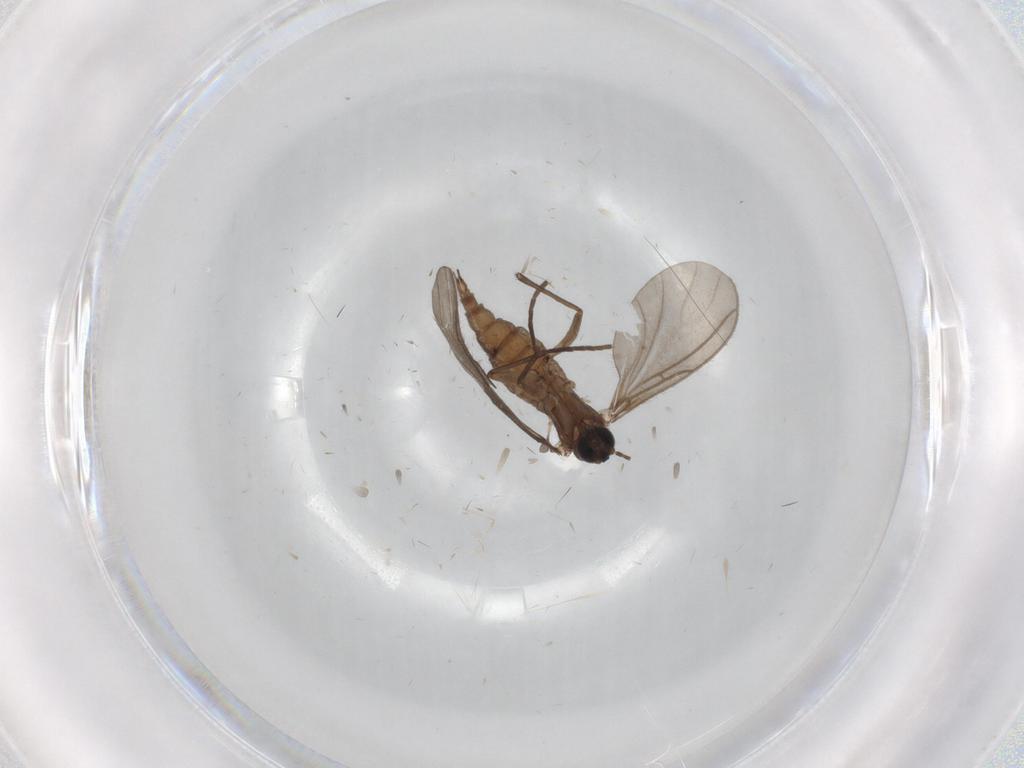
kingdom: Animalia
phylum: Arthropoda
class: Insecta
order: Diptera
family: Sciaridae
